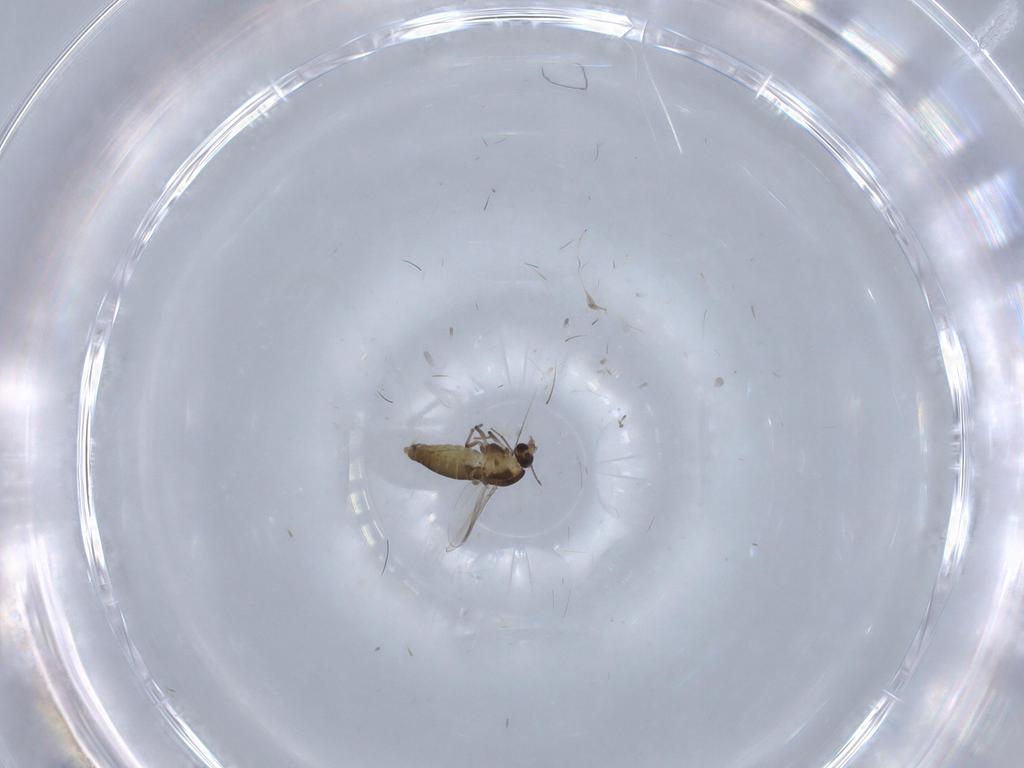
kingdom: Animalia
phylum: Arthropoda
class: Insecta
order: Diptera
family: Chironomidae
